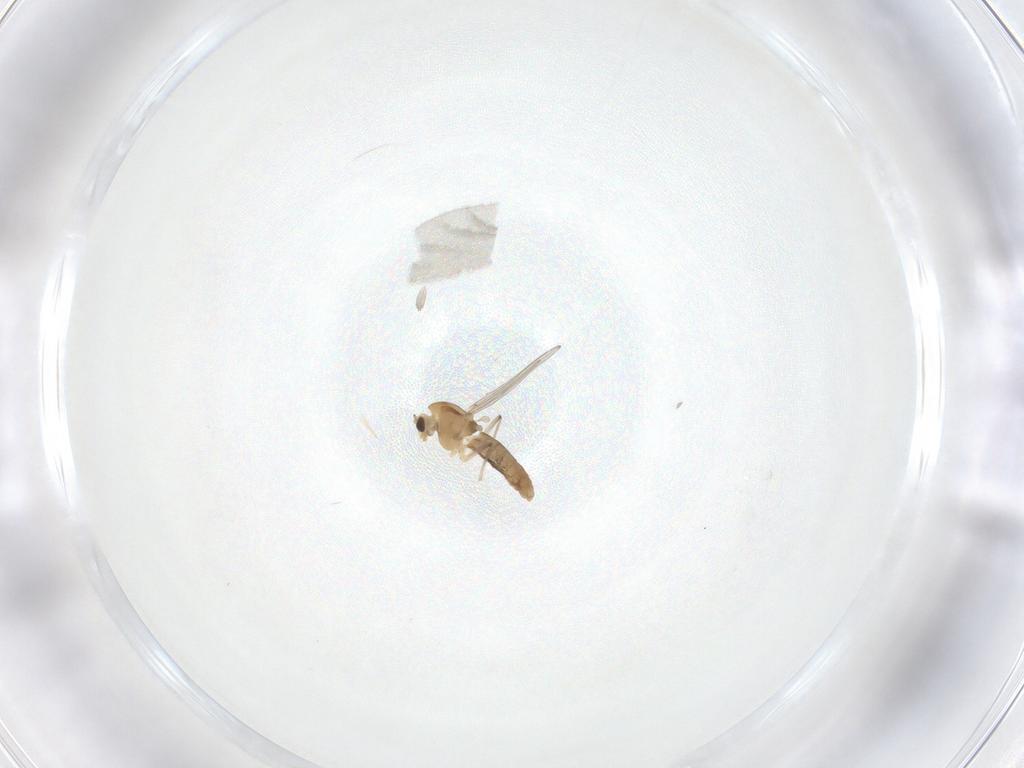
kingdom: Animalia
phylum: Arthropoda
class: Insecta
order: Diptera
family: Chironomidae
